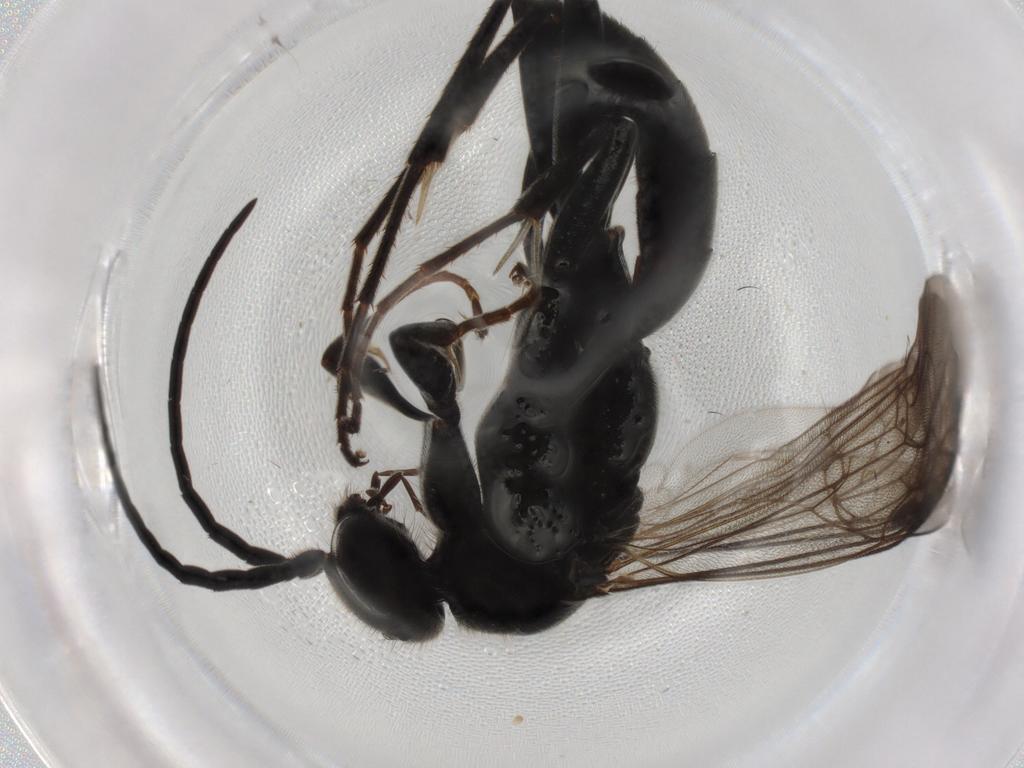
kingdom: Animalia
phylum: Arthropoda
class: Insecta
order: Hymenoptera
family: Pompilidae
